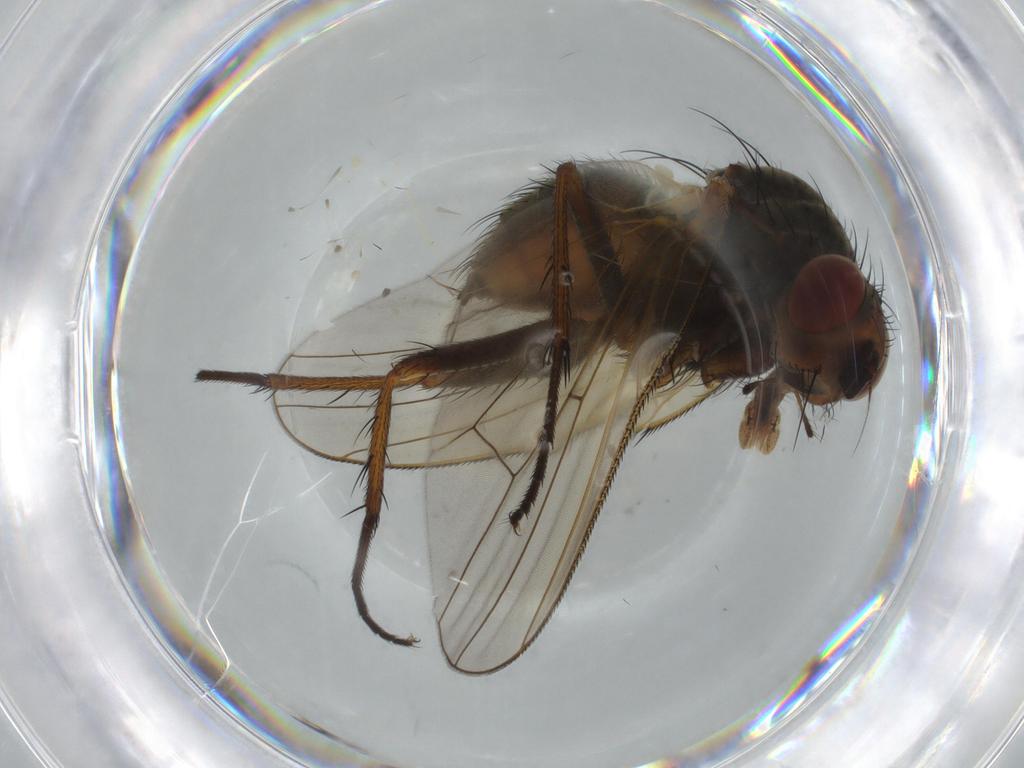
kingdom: Animalia
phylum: Arthropoda
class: Insecta
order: Diptera
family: Anthomyiidae
